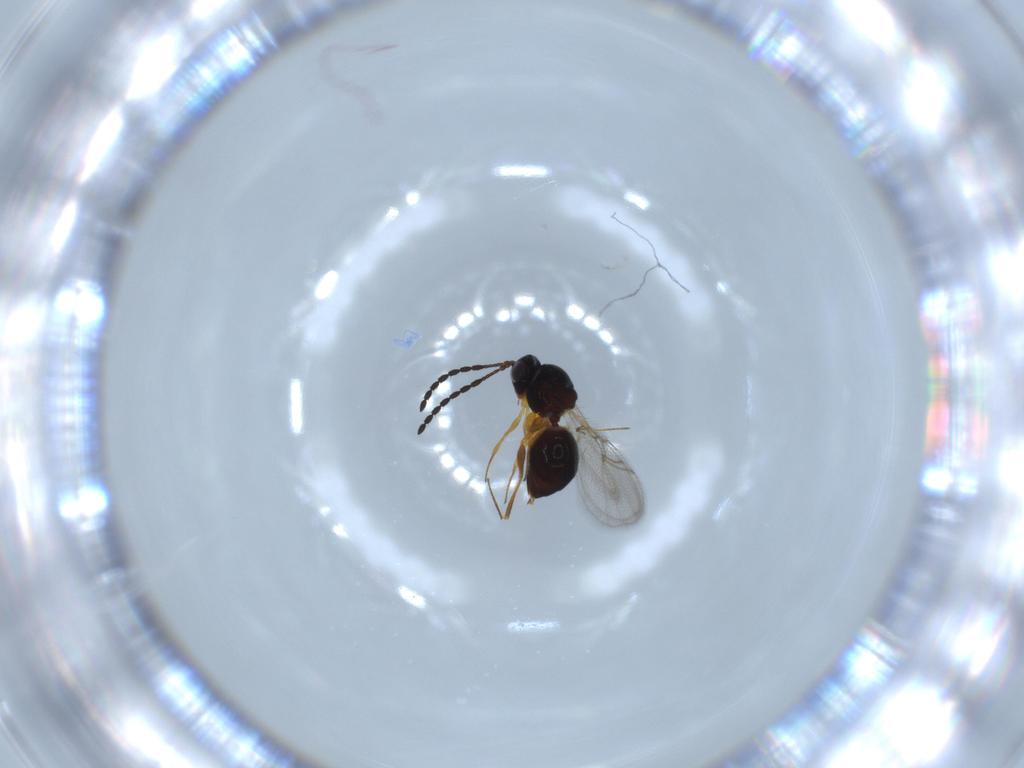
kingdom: Animalia
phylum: Arthropoda
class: Insecta
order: Hymenoptera
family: Figitidae
